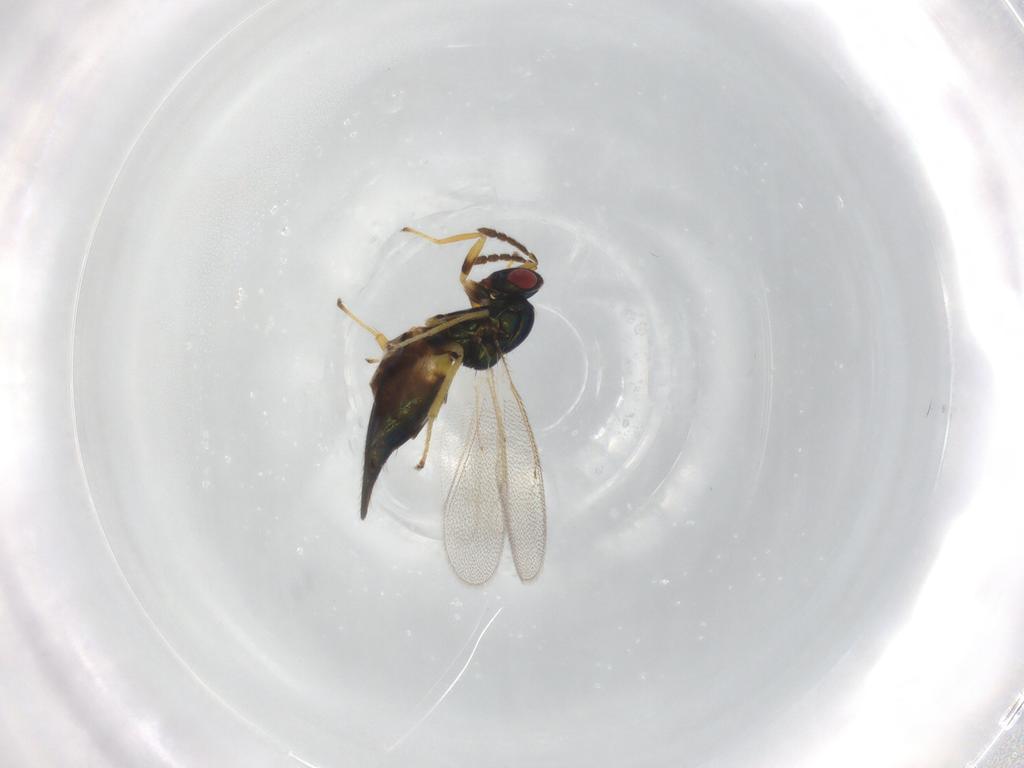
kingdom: Animalia
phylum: Arthropoda
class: Insecta
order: Hymenoptera
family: Eulophidae
